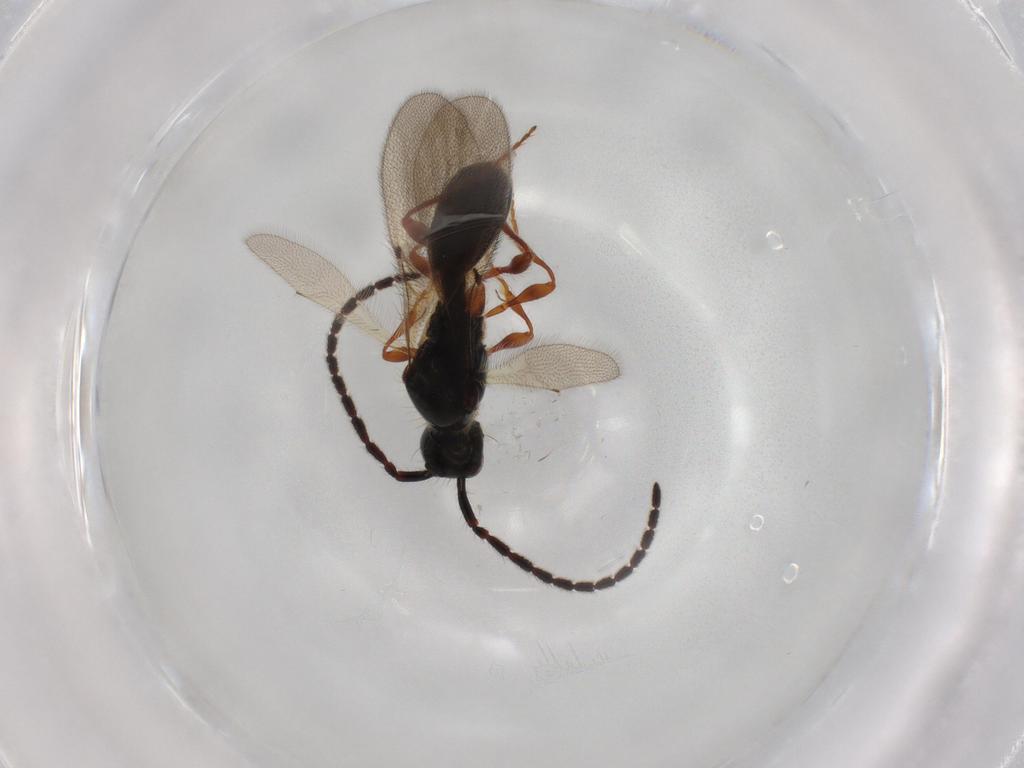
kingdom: Animalia
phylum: Arthropoda
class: Insecta
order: Hymenoptera
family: Diapriidae
